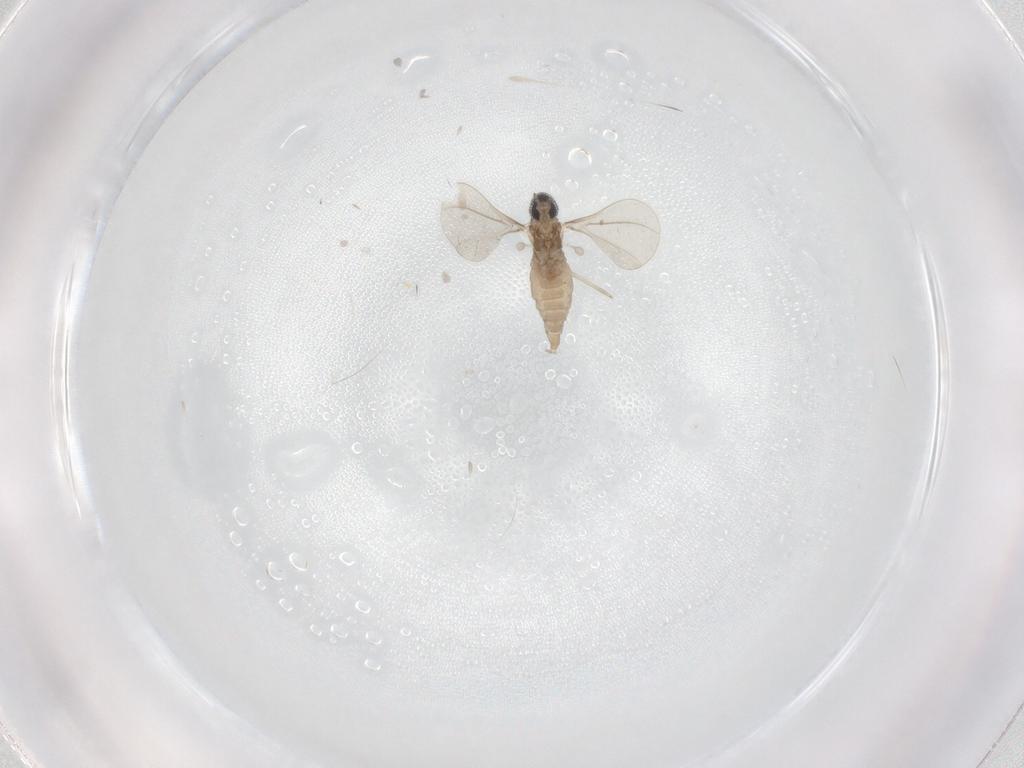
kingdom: Animalia
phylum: Arthropoda
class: Insecta
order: Diptera
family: Cecidomyiidae
